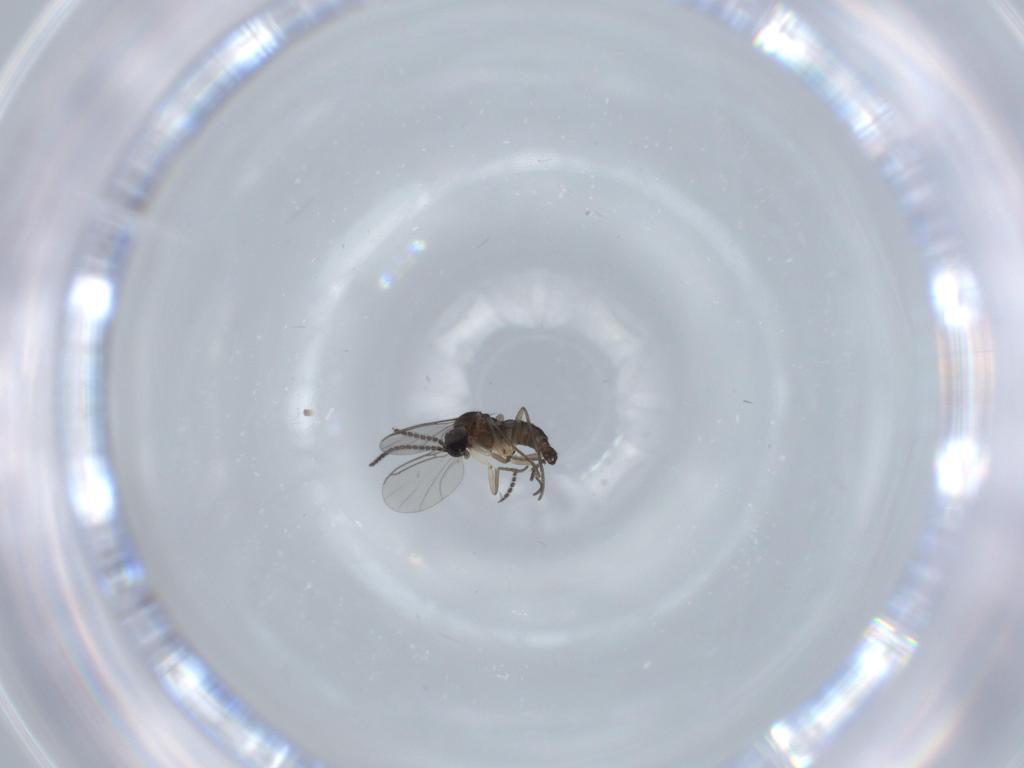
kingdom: Animalia
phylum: Arthropoda
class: Insecta
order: Diptera
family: Sciaridae
